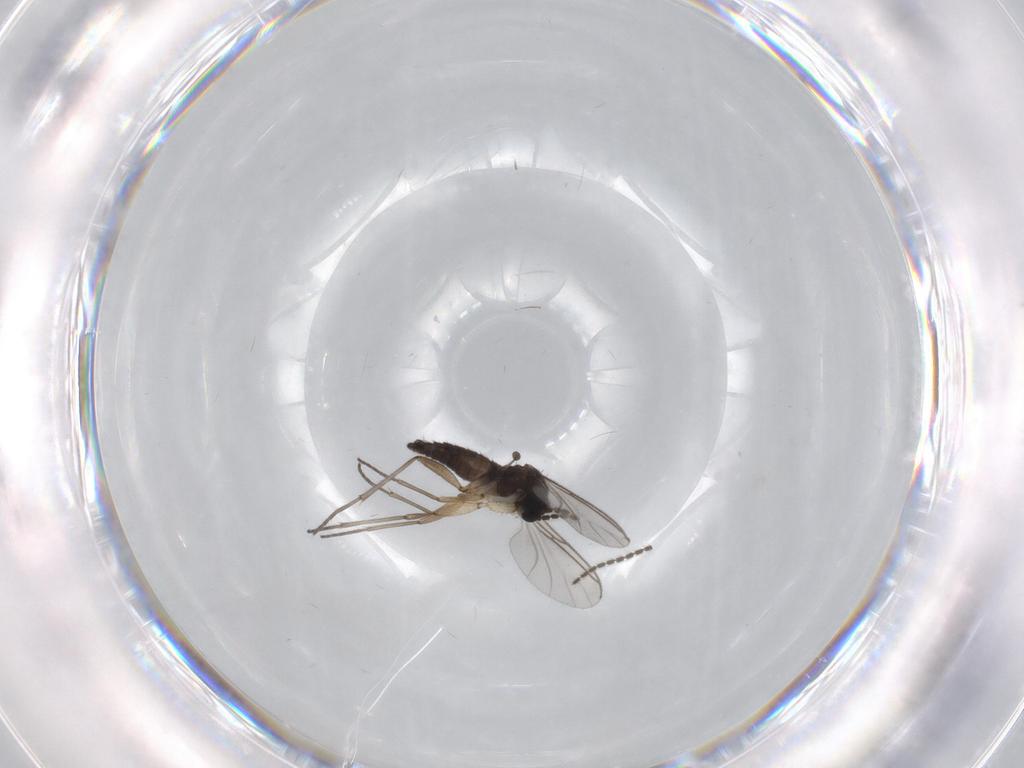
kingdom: Animalia
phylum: Arthropoda
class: Insecta
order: Diptera
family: Sciaridae
